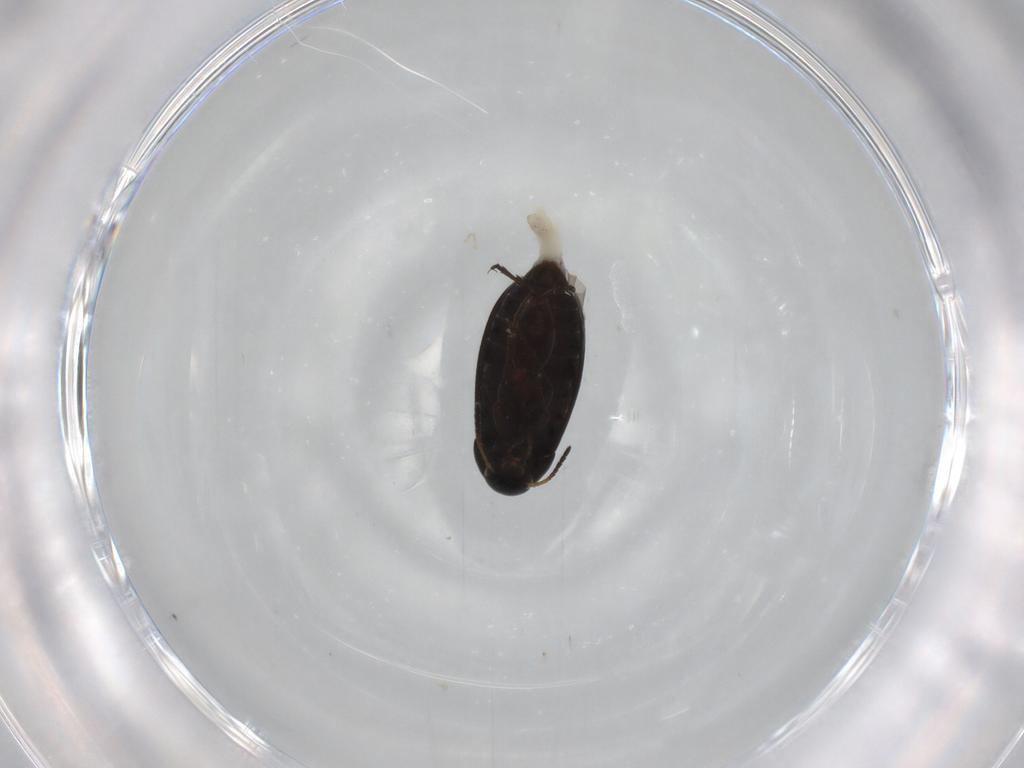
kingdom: Animalia
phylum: Arthropoda
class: Insecta
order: Coleoptera
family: Scraptiidae
